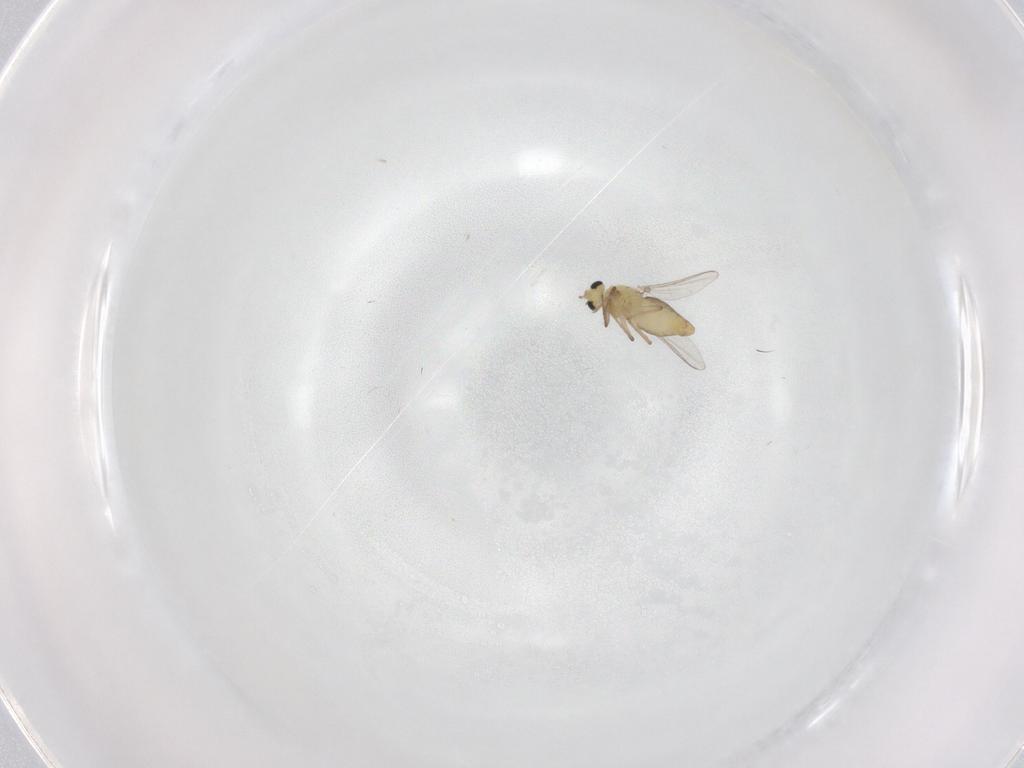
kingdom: Animalia
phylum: Arthropoda
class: Insecta
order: Diptera
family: Chironomidae
